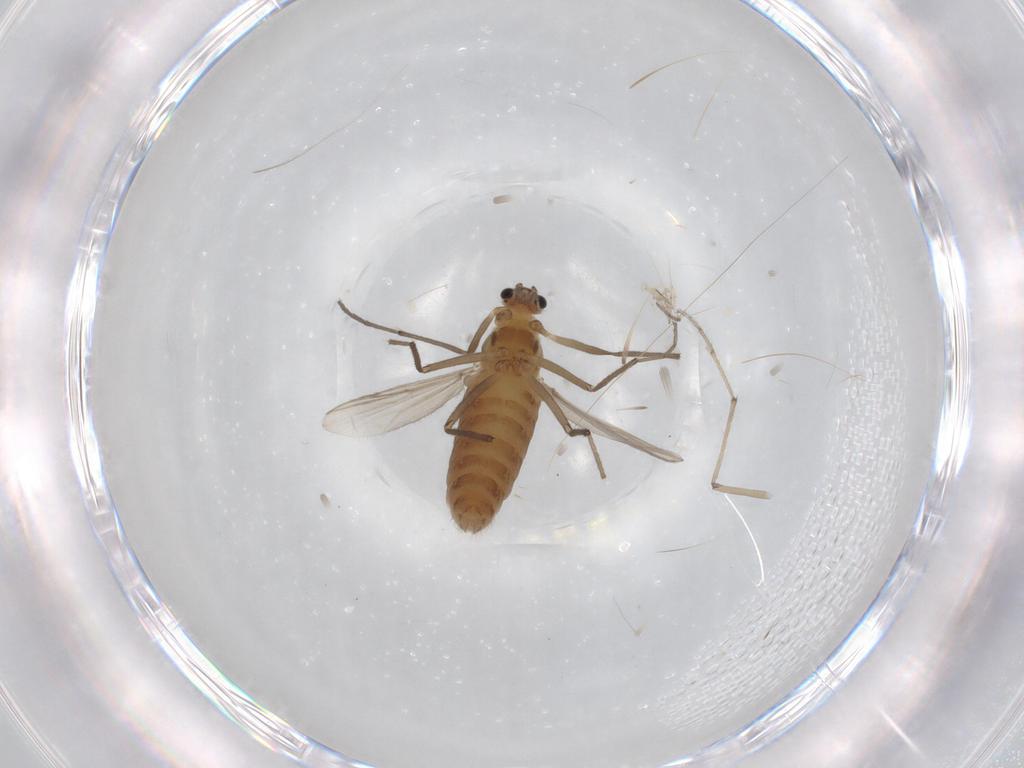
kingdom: Animalia
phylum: Arthropoda
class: Insecta
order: Diptera
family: Chironomidae
